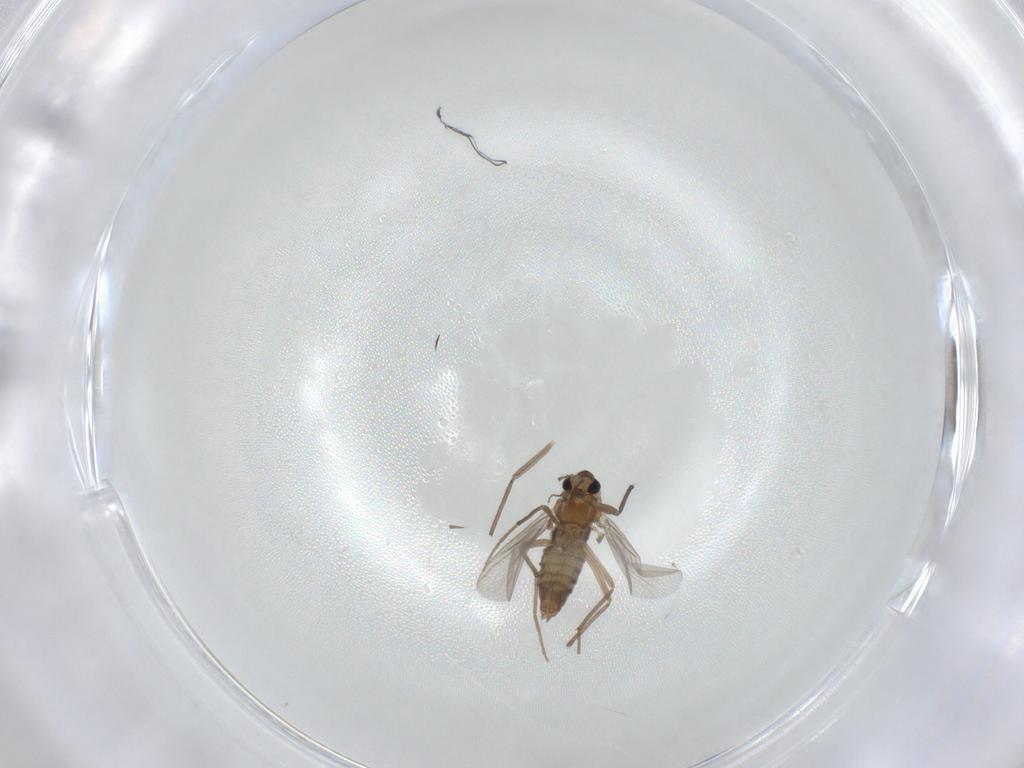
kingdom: Animalia
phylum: Arthropoda
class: Insecta
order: Diptera
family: Chironomidae
